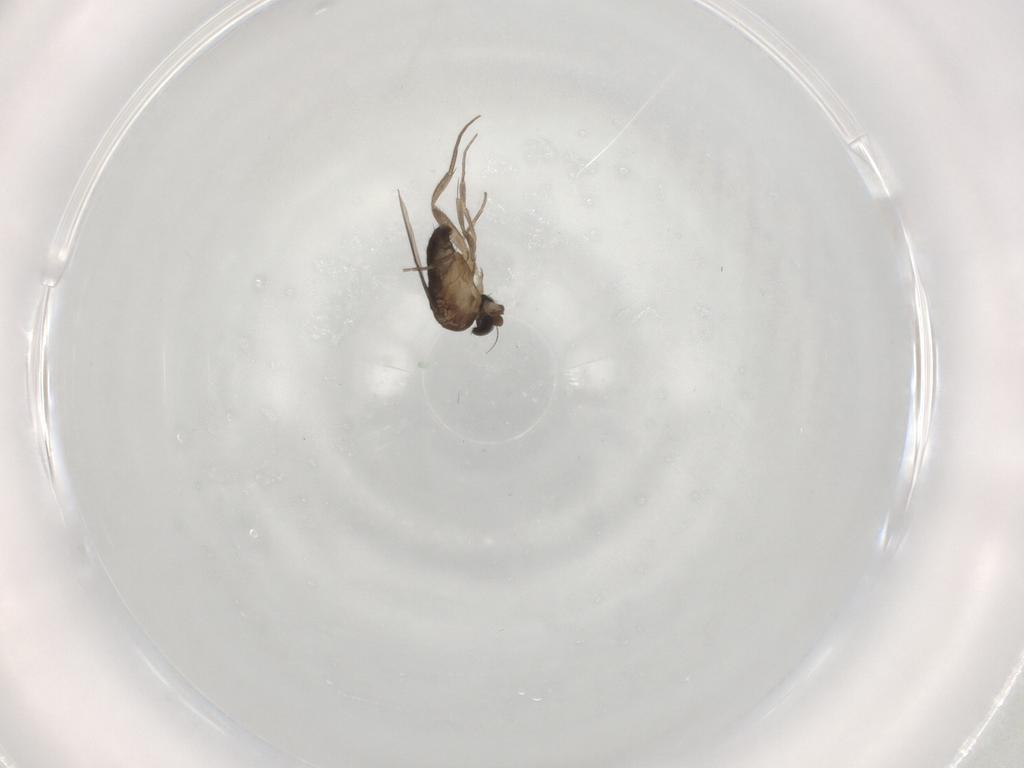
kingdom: Animalia
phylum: Arthropoda
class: Insecta
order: Diptera
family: Phoridae
